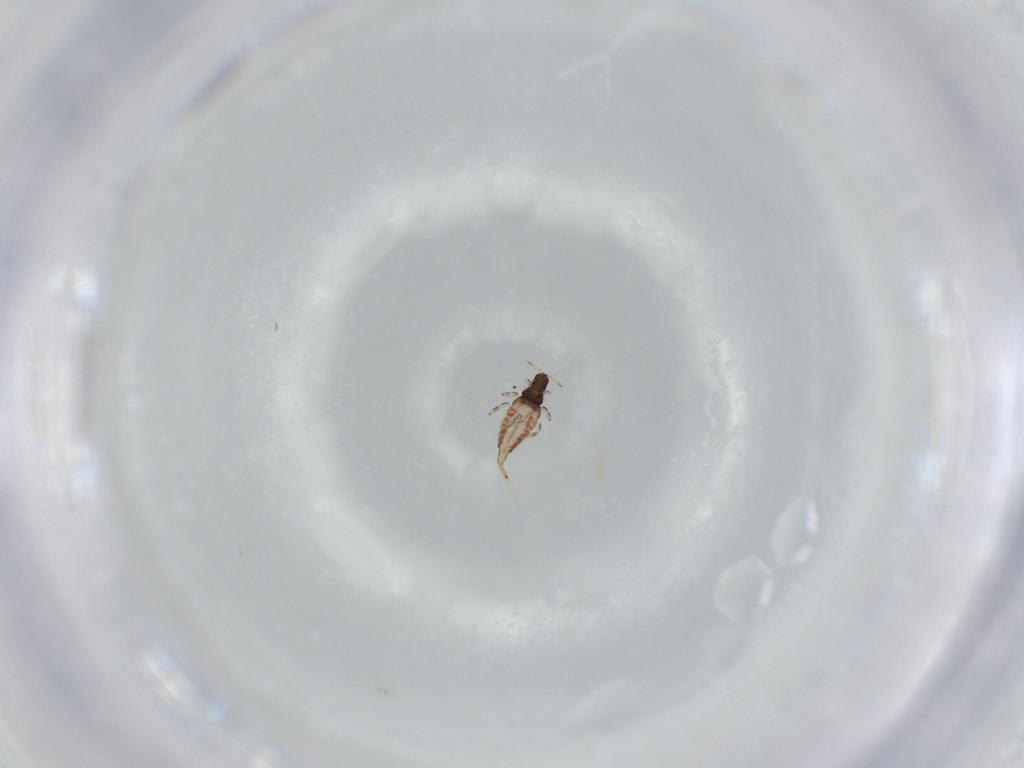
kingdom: Animalia
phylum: Arthropoda
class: Insecta
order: Thysanoptera
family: Phlaeothripidae
